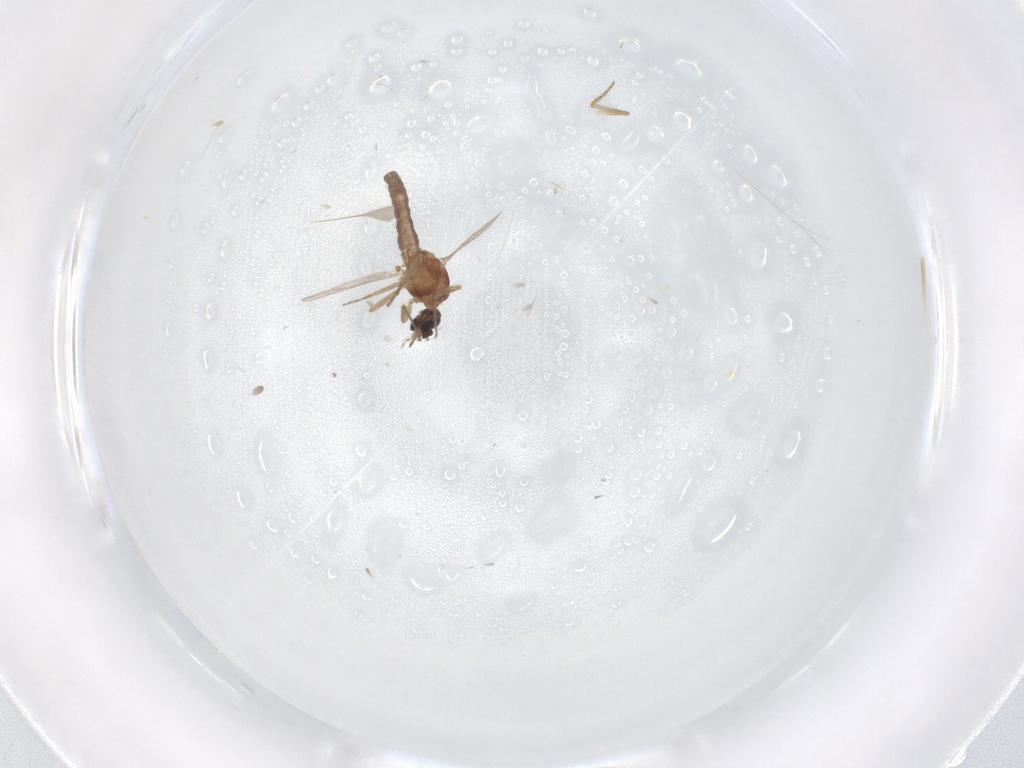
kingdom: Animalia
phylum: Arthropoda
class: Insecta
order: Diptera
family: Ceratopogonidae
